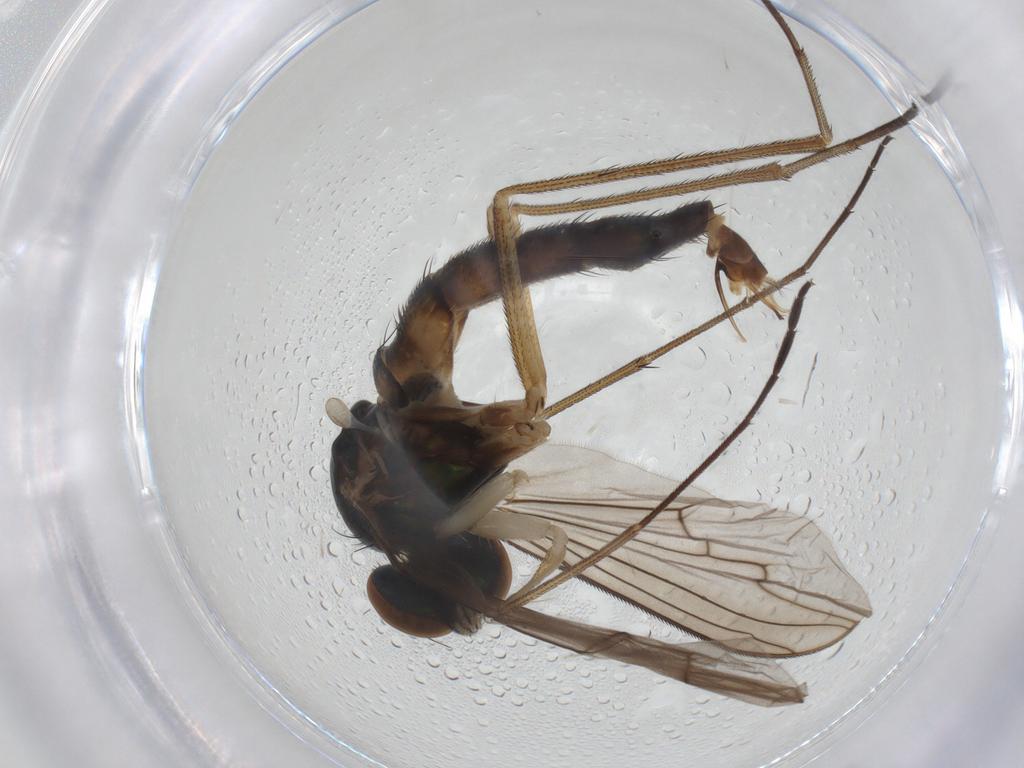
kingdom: Animalia
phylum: Arthropoda
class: Insecta
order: Diptera
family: Dolichopodidae
